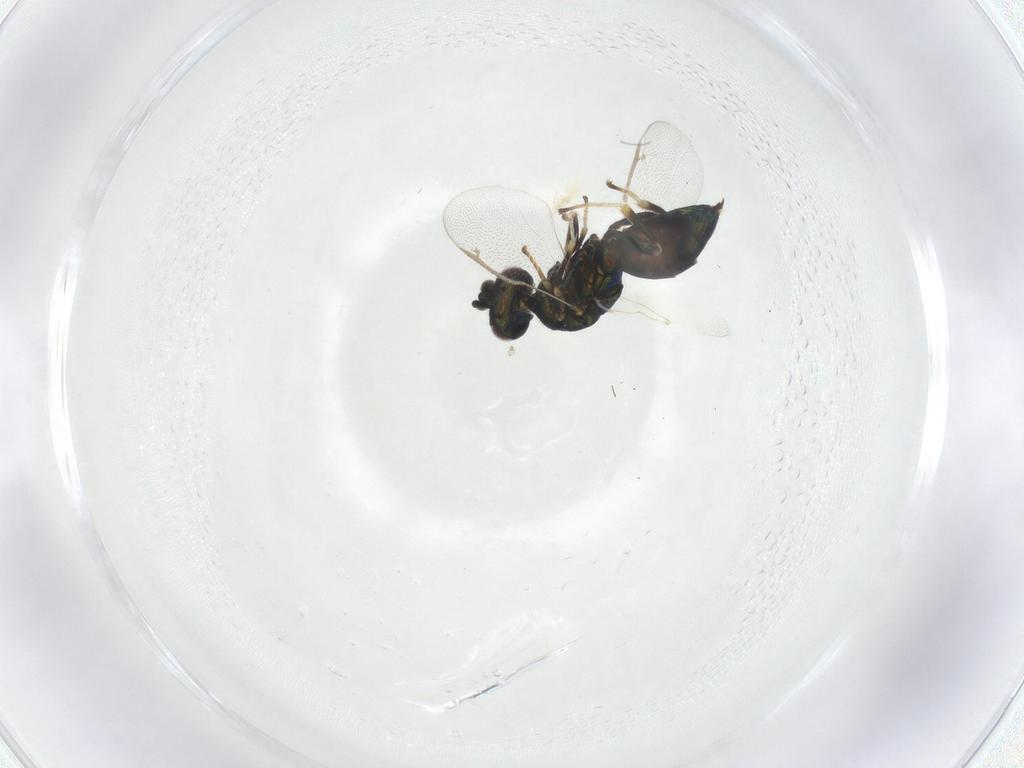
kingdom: Animalia
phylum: Arthropoda
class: Insecta
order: Hymenoptera
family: Torymidae
